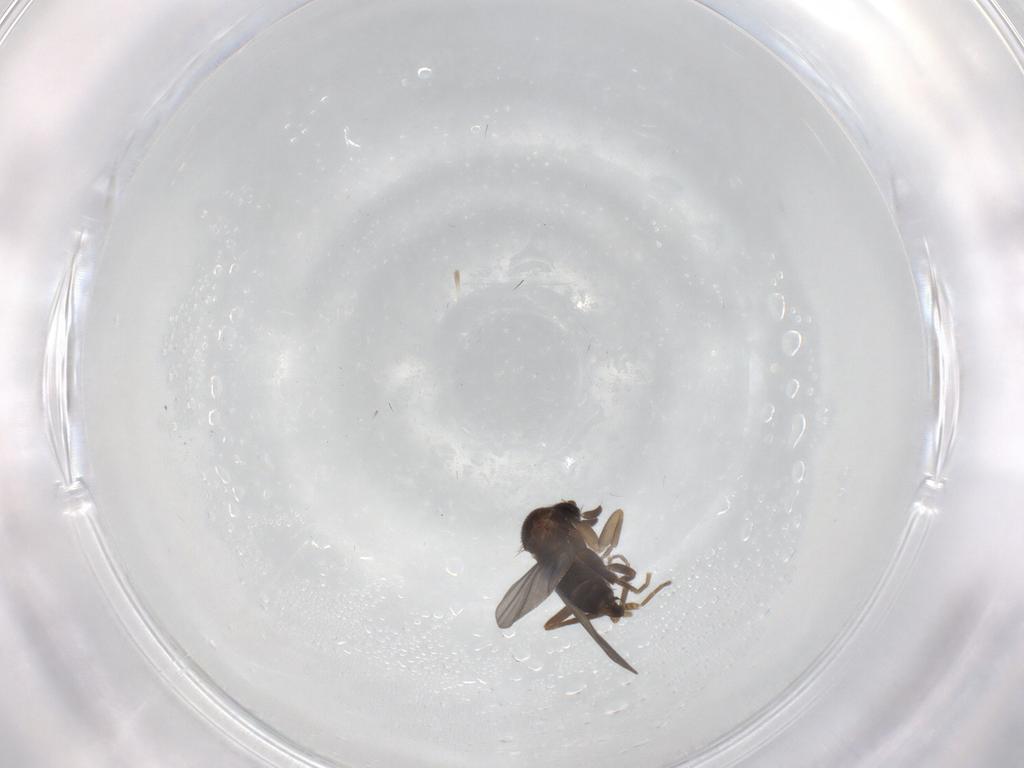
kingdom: Animalia
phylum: Arthropoda
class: Insecta
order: Diptera
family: Phoridae
